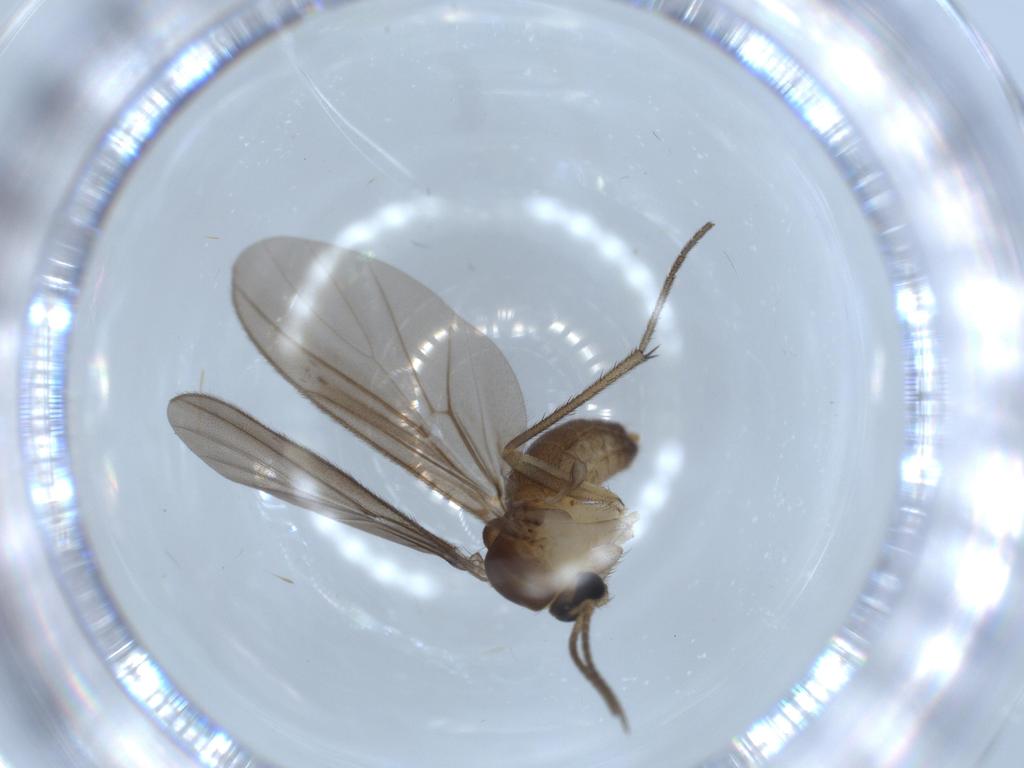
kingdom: Animalia
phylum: Arthropoda
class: Insecta
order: Diptera
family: Diadocidiidae
